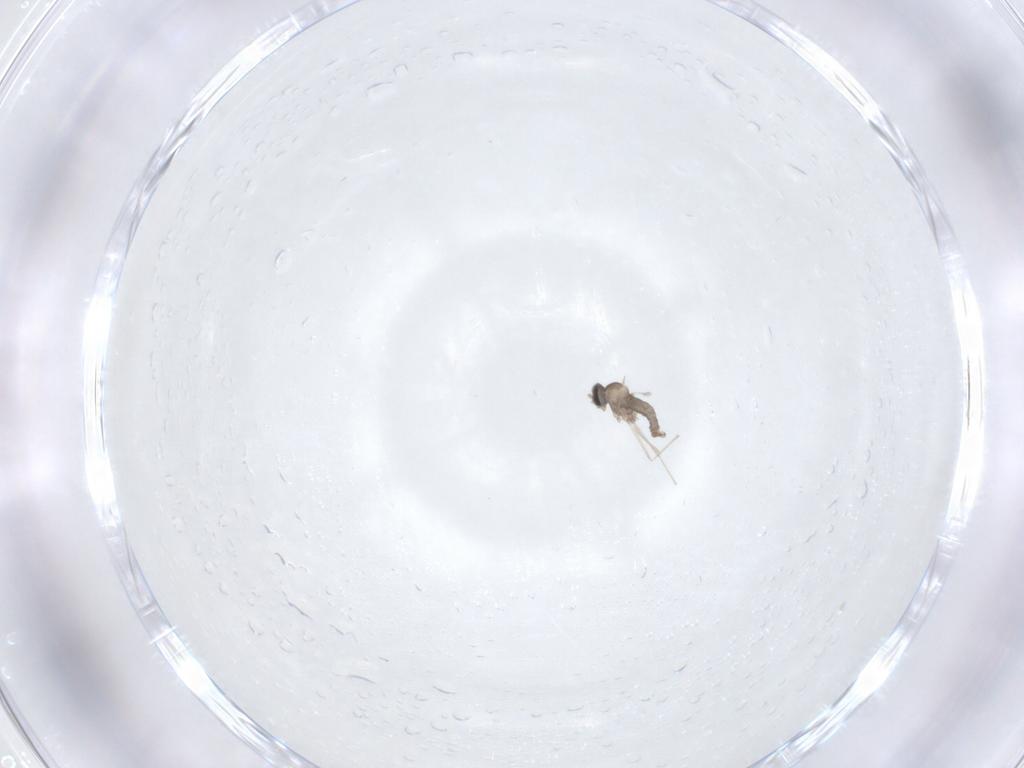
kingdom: Animalia
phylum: Arthropoda
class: Insecta
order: Diptera
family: Cecidomyiidae
